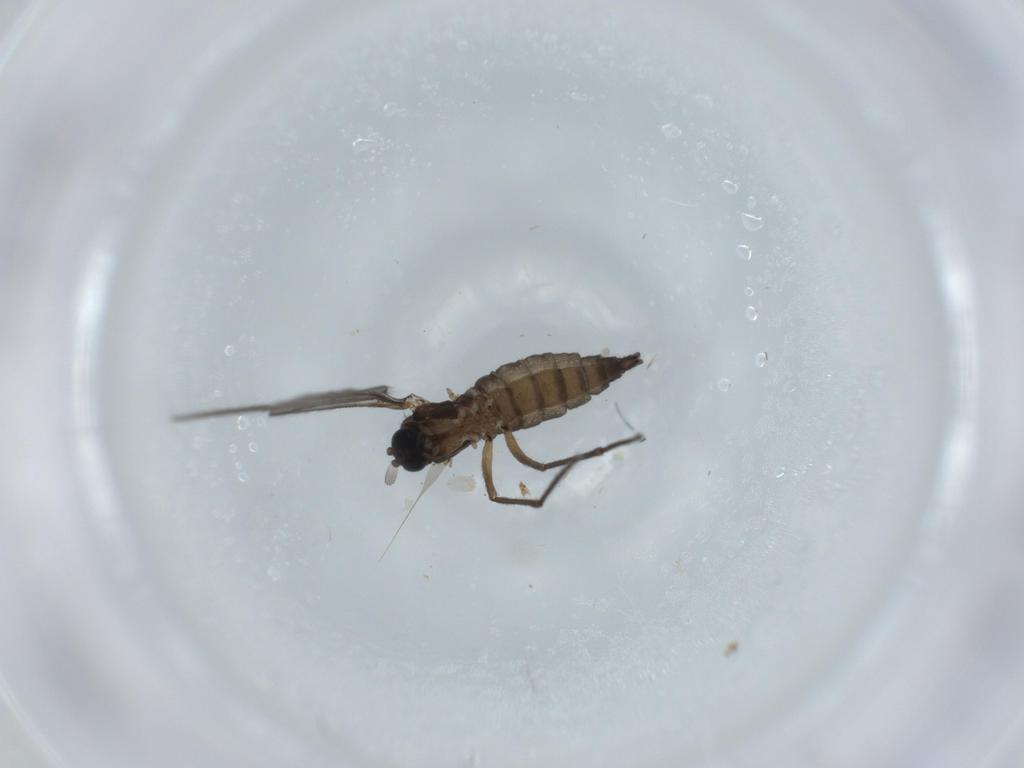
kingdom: Animalia
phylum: Arthropoda
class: Insecta
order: Diptera
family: Sciaridae
